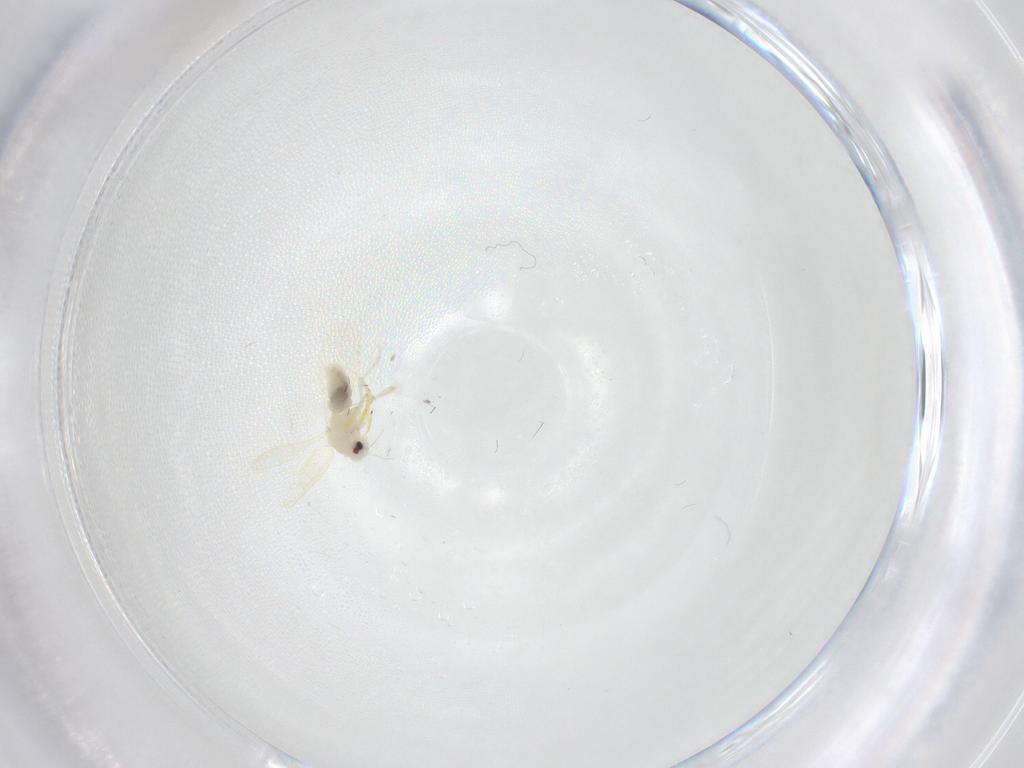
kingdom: Animalia
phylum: Arthropoda
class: Insecta
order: Hemiptera
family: Aleyrodidae
